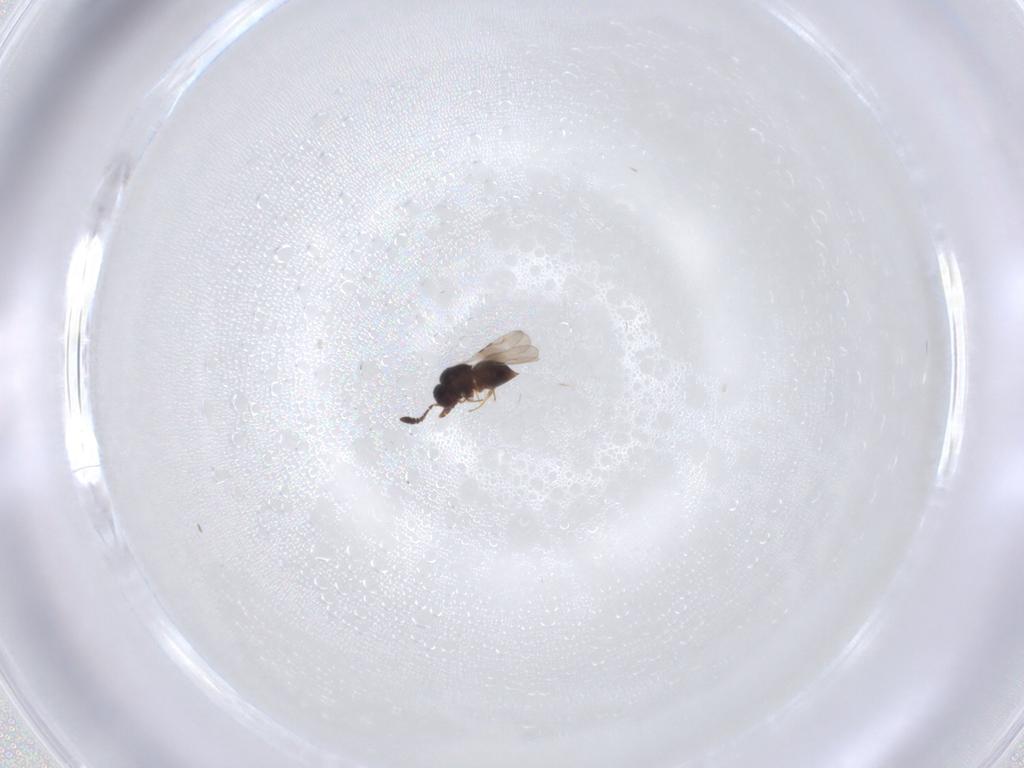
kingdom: Animalia
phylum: Arthropoda
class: Insecta
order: Hymenoptera
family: Ceraphronidae
